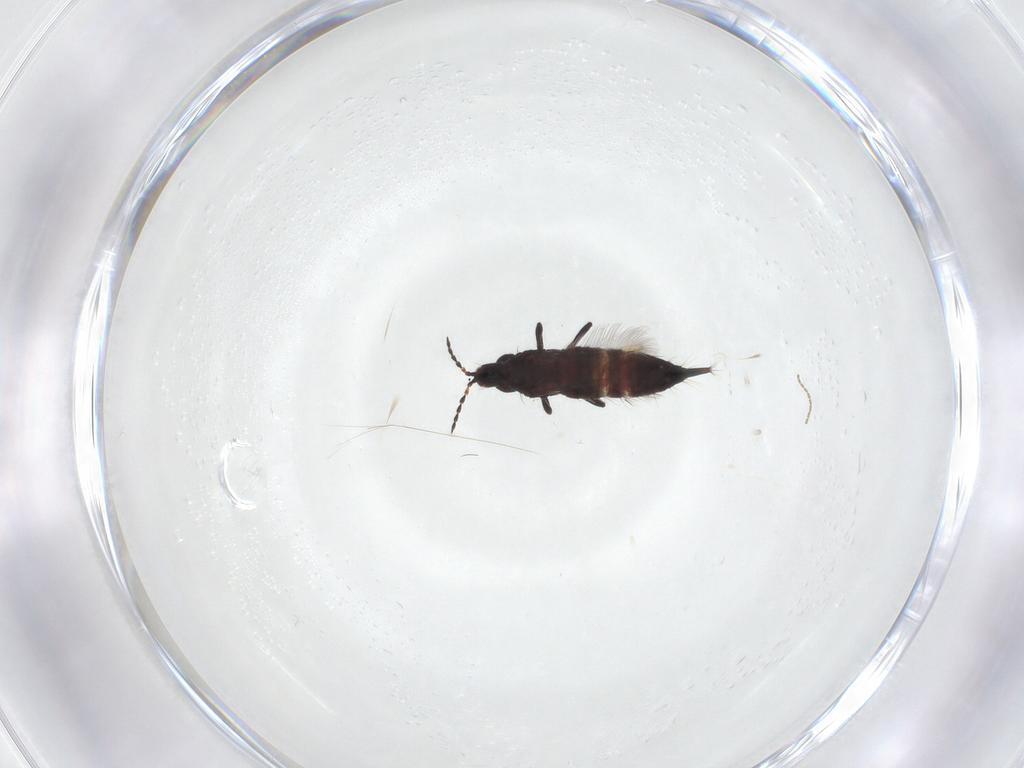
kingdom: Animalia
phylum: Arthropoda
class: Insecta
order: Thysanoptera
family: Phlaeothripidae
